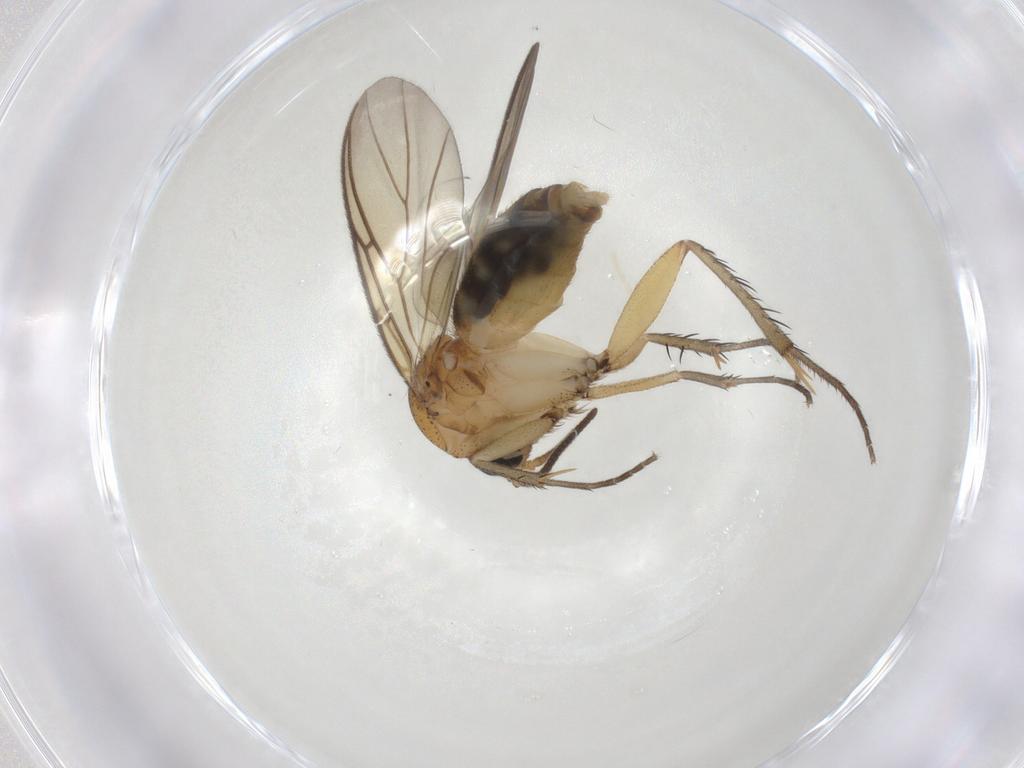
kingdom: Animalia
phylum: Arthropoda
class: Insecta
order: Diptera
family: Mycetophilidae
